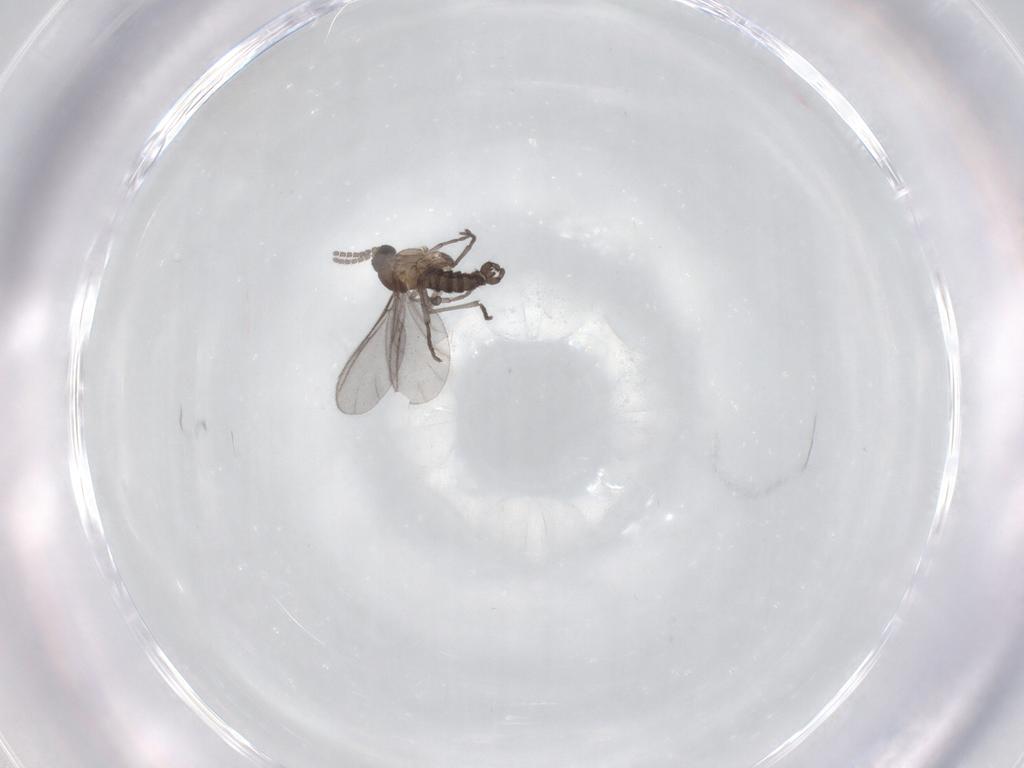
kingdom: Animalia
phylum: Arthropoda
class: Insecta
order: Diptera
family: Sciaridae
